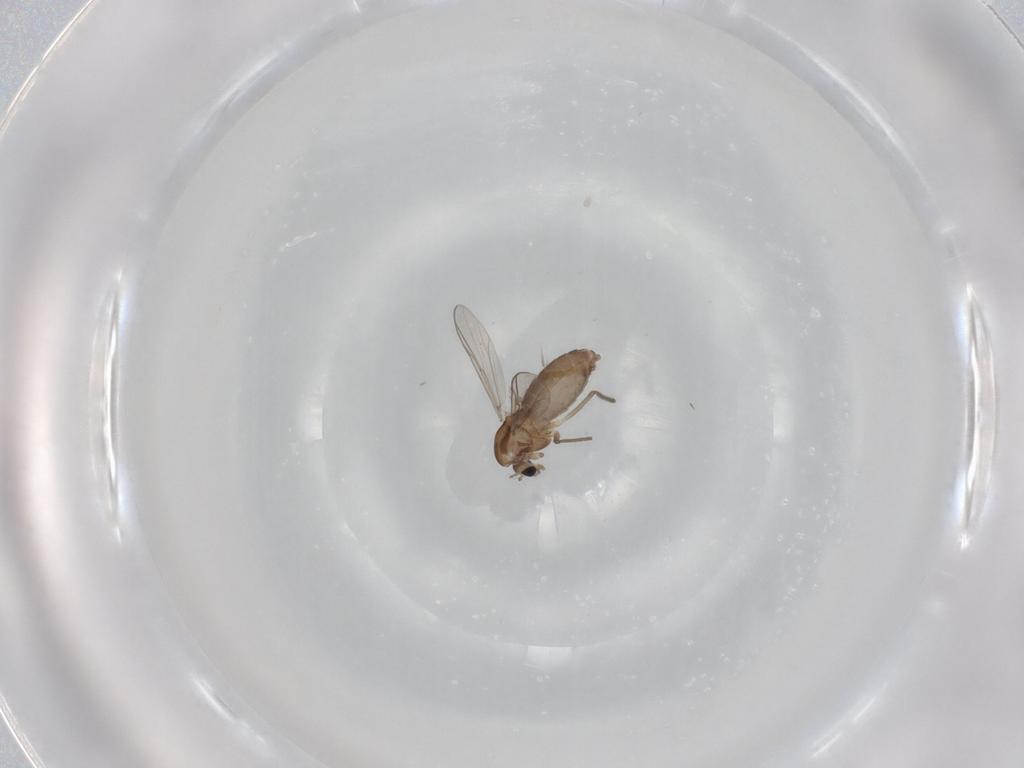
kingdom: Animalia
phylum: Arthropoda
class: Insecta
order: Diptera
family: Chironomidae
